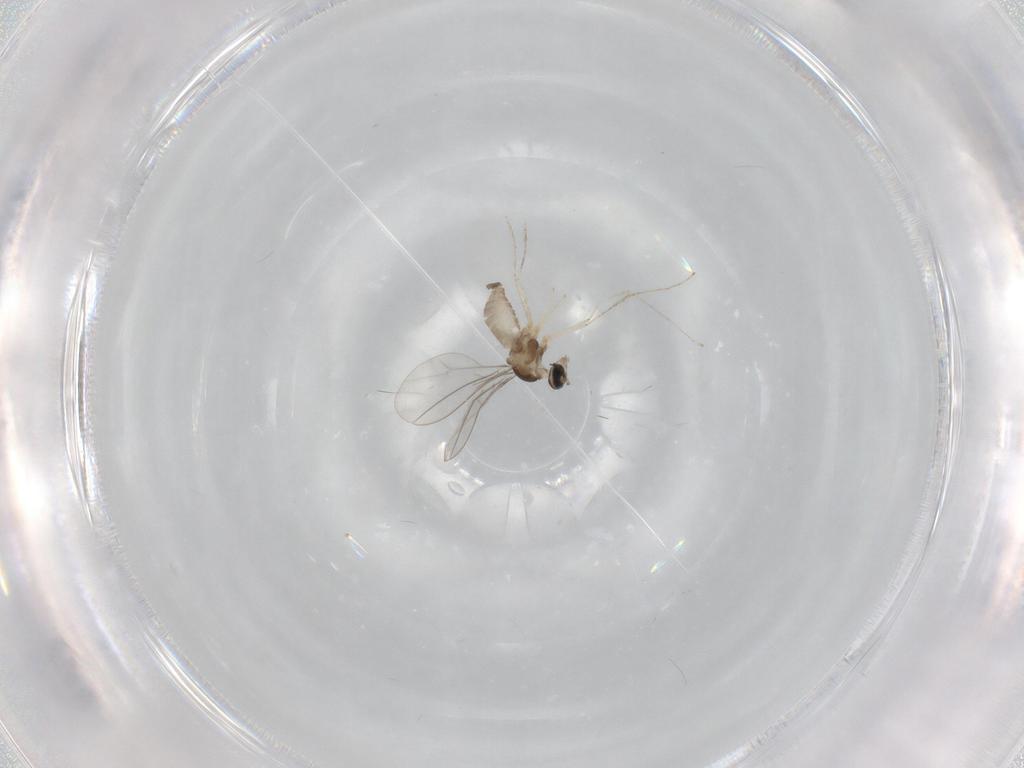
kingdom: Animalia
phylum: Arthropoda
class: Insecta
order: Diptera
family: Cecidomyiidae
